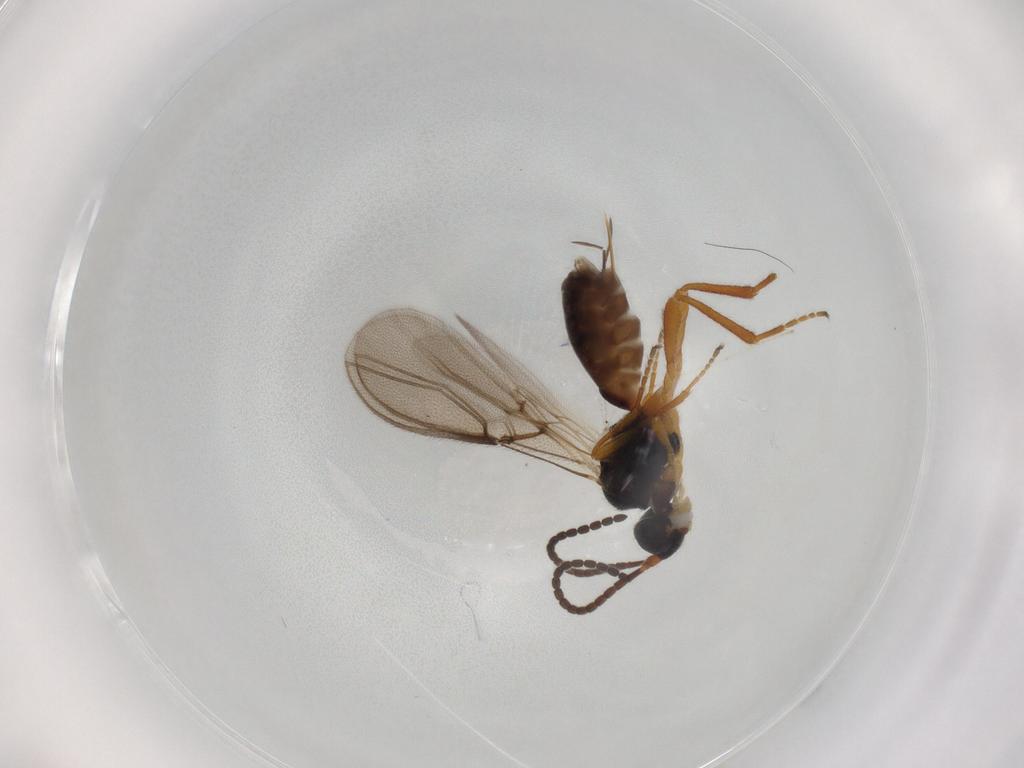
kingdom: Animalia
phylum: Arthropoda
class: Insecta
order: Hymenoptera
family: Braconidae
